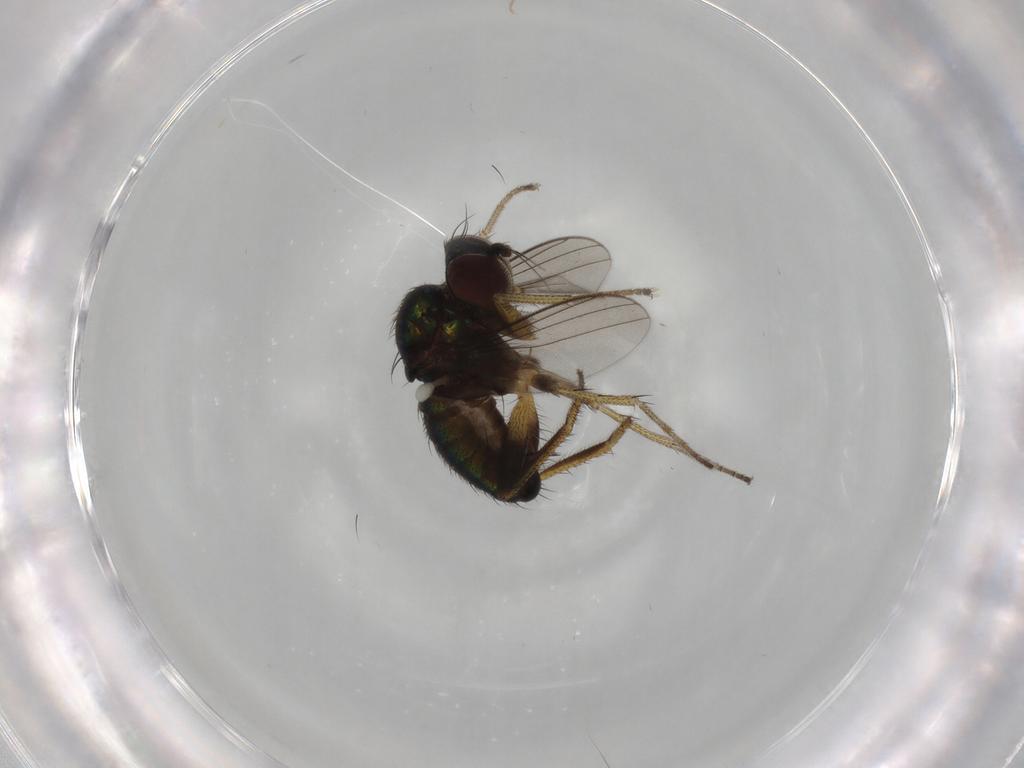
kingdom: Animalia
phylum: Arthropoda
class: Insecta
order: Diptera
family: Dolichopodidae
